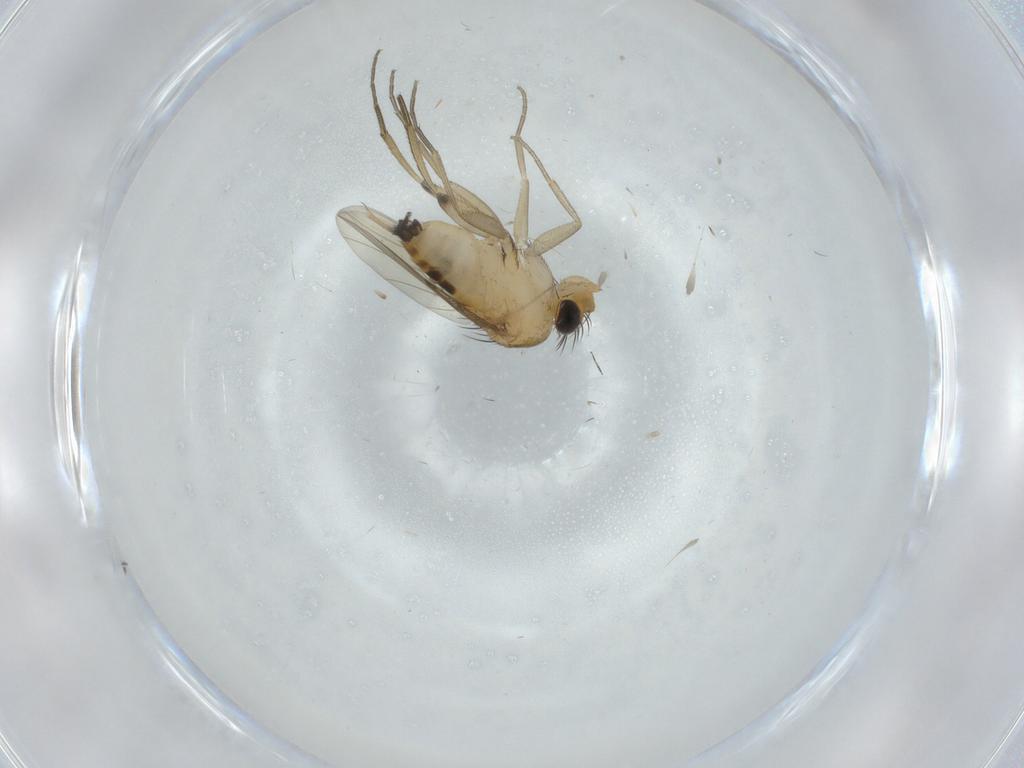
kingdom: Animalia
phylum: Arthropoda
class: Insecta
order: Diptera
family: Phoridae
